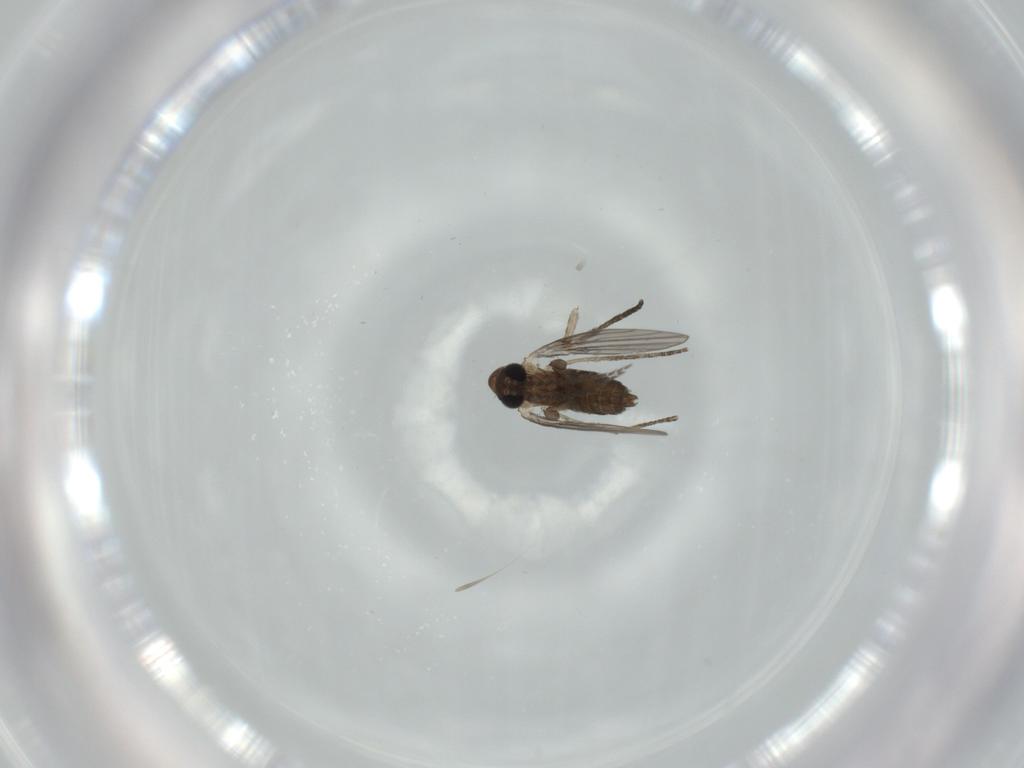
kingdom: Animalia
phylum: Arthropoda
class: Insecta
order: Diptera
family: Psychodidae
